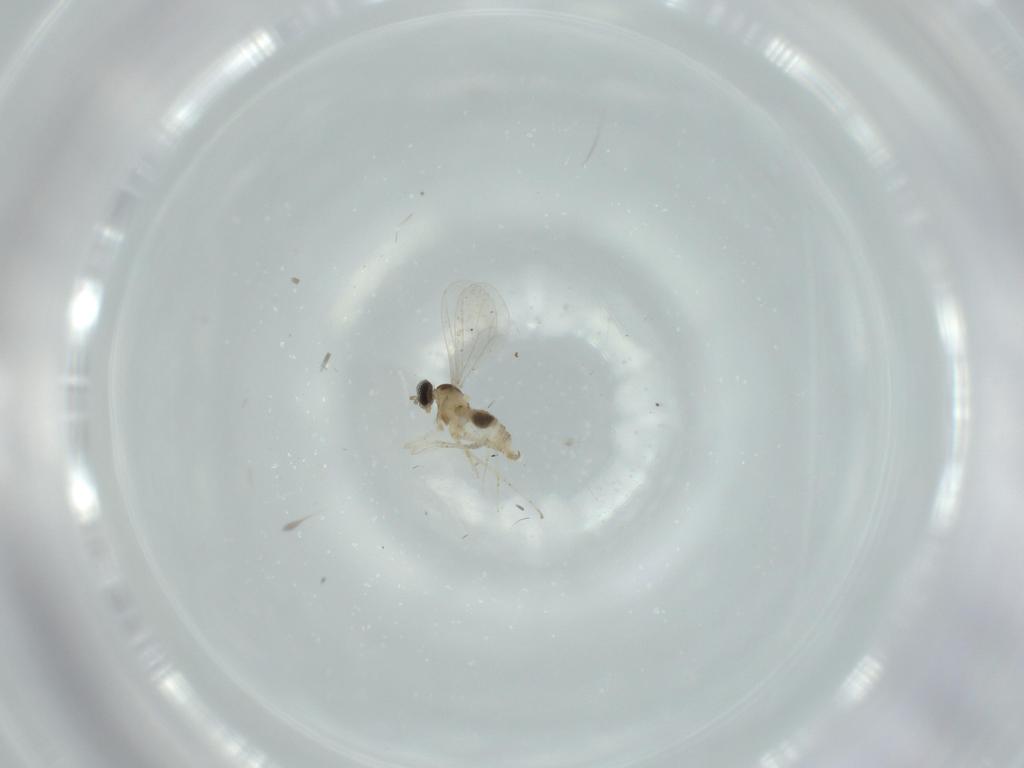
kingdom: Animalia
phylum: Arthropoda
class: Insecta
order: Diptera
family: Cecidomyiidae
